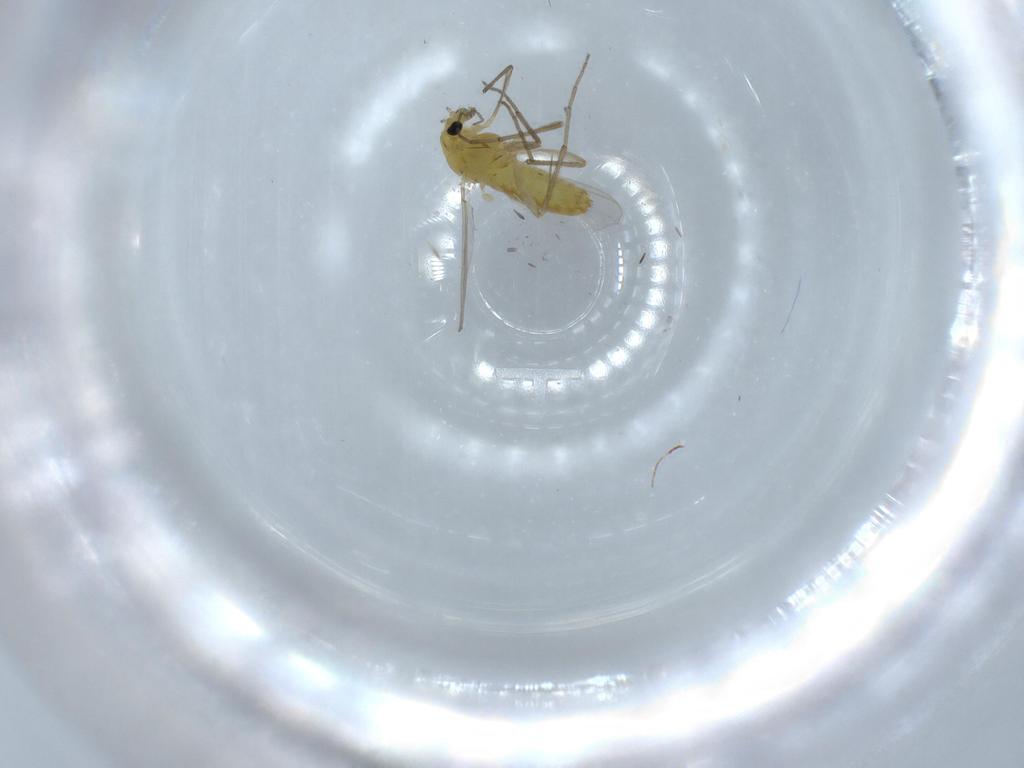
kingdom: Animalia
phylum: Arthropoda
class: Insecta
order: Diptera
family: Chironomidae
